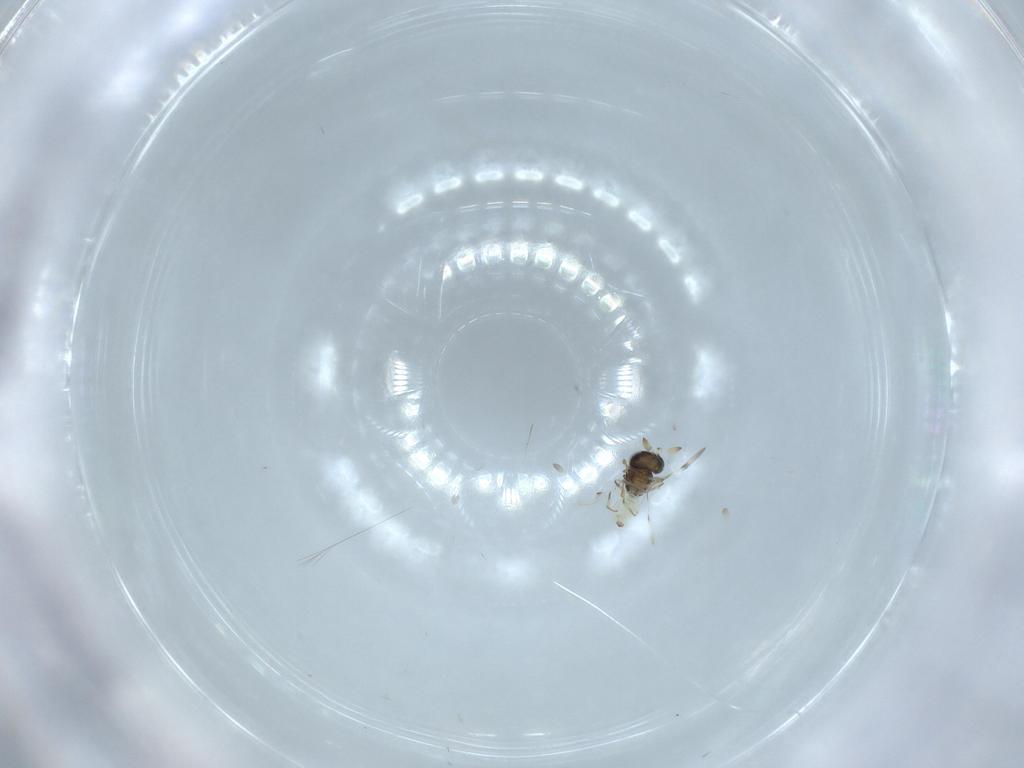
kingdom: Animalia
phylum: Arthropoda
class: Insecta
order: Hymenoptera
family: Scelionidae
